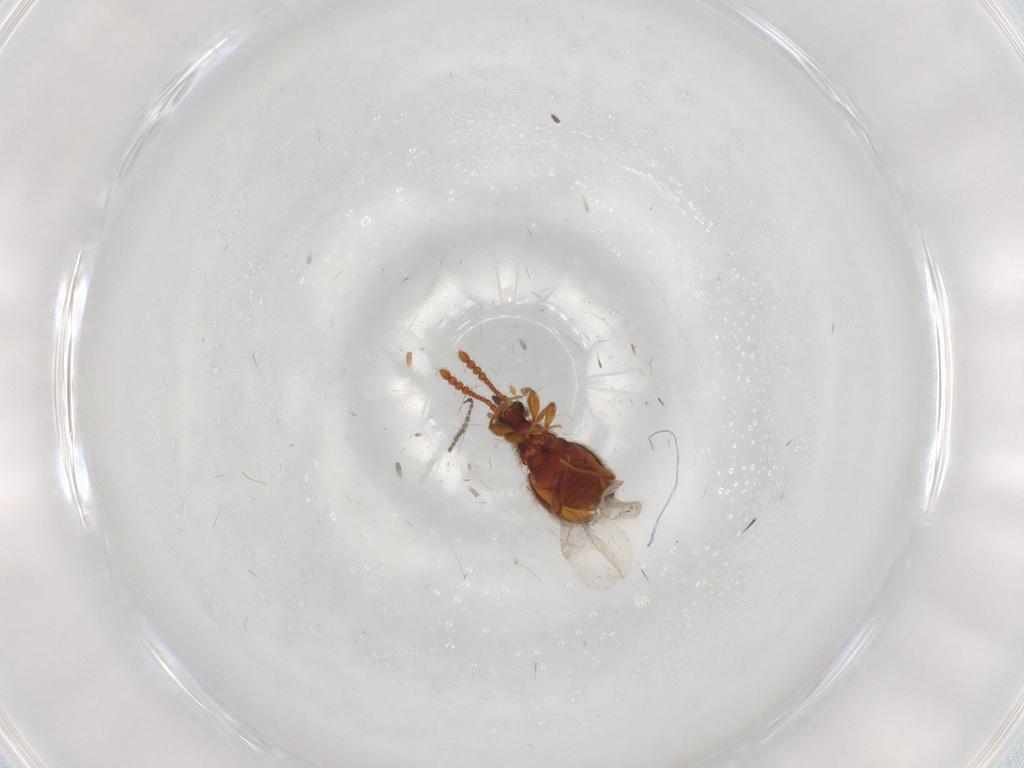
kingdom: Animalia
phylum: Arthropoda
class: Insecta
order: Coleoptera
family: Staphylinidae
